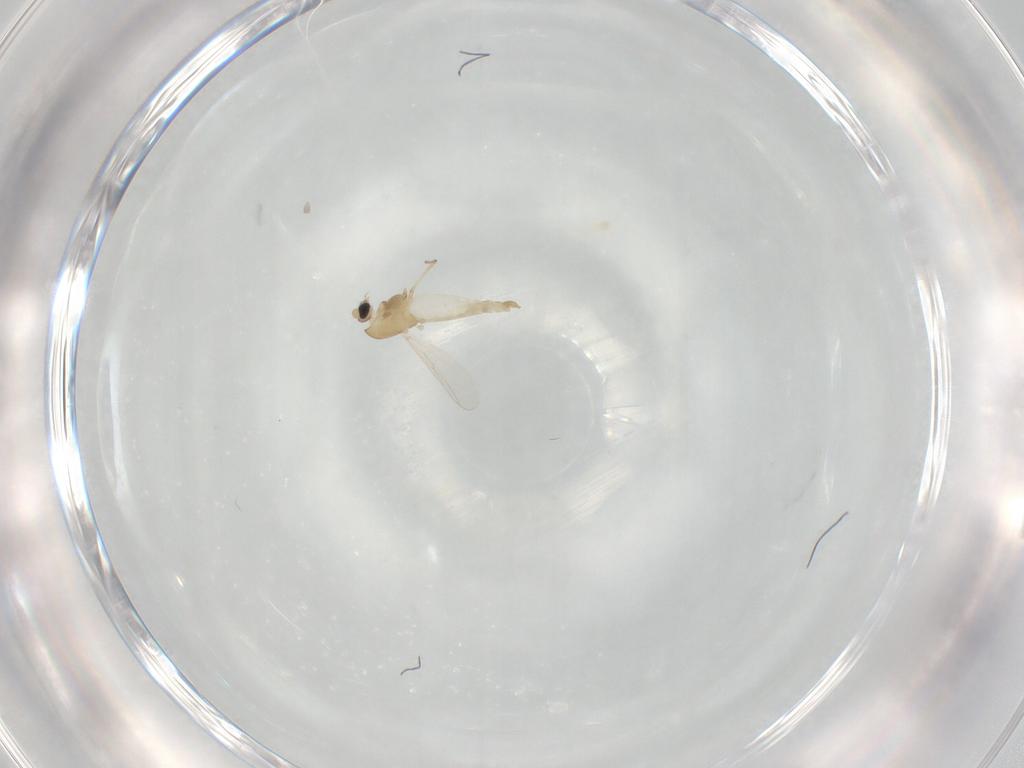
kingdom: Animalia
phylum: Arthropoda
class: Insecta
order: Diptera
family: Chironomidae
